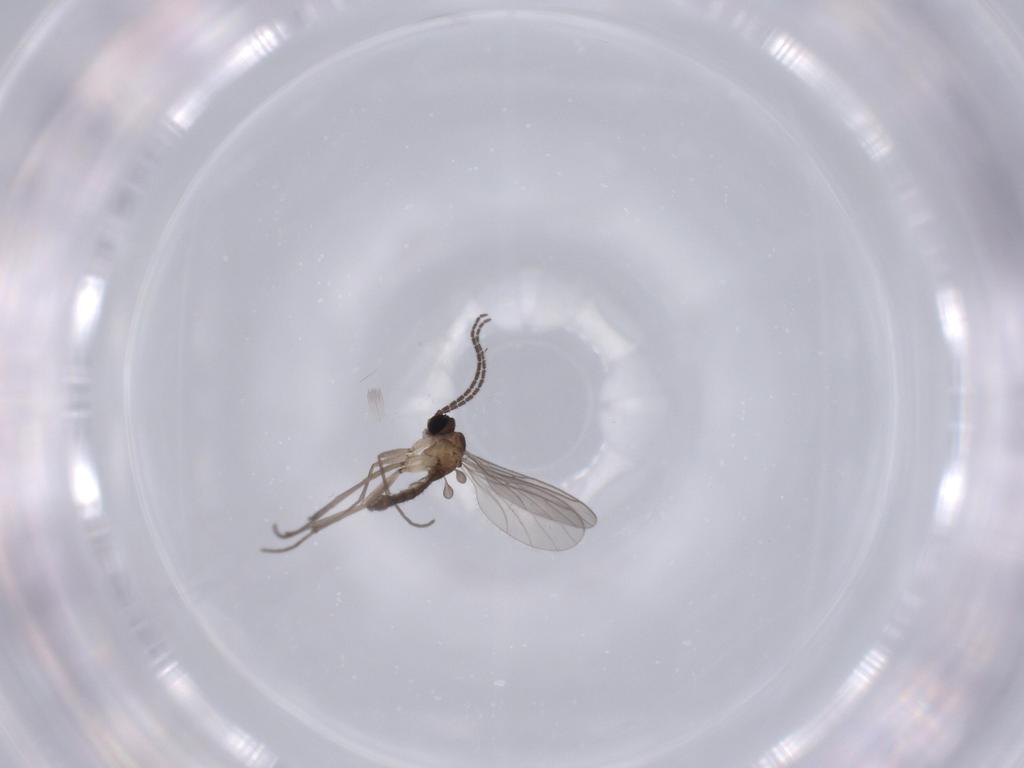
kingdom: Animalia
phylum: Arthropoda
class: Insecta
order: Diptera
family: Sciaridae
